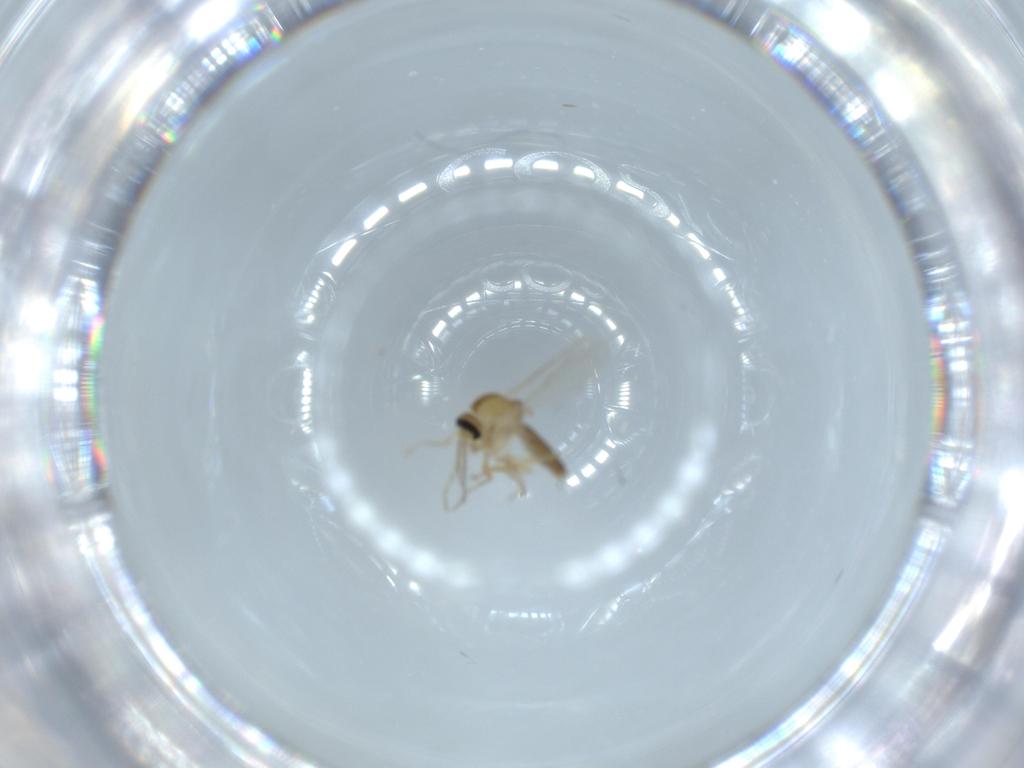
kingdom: Animalia
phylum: Arthropoda
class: Insecta
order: Diptera
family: Ceratopogonidae
